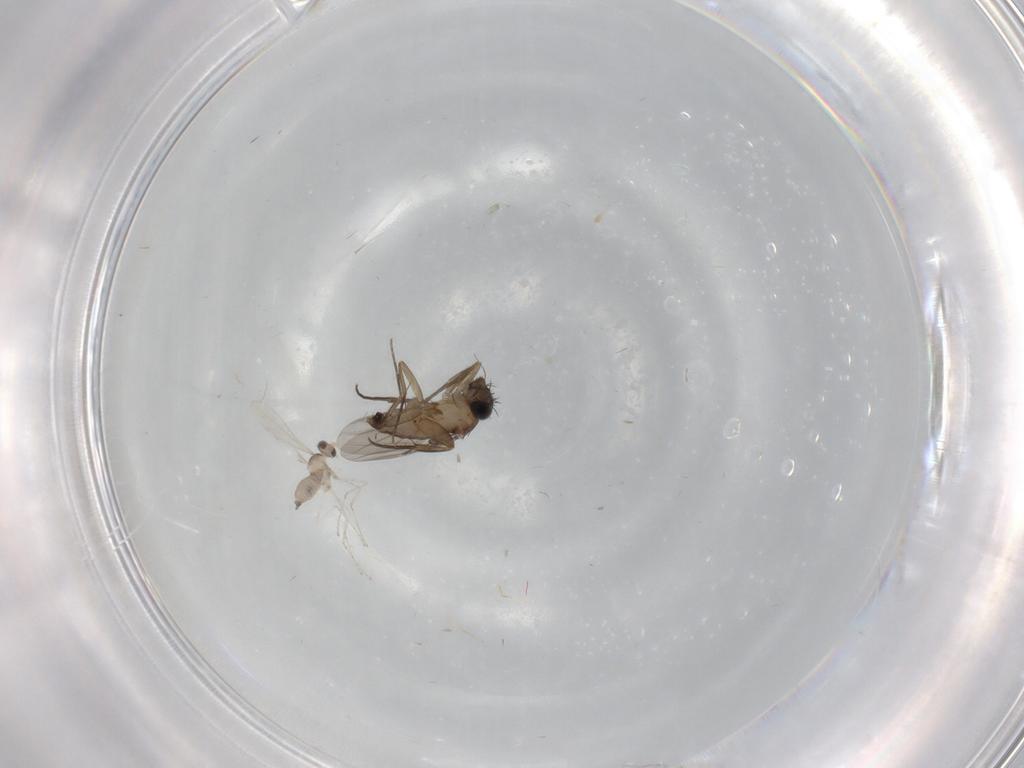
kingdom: Animalia
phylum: Arthropoda
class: Insecta
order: Diptera
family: Phoridae
